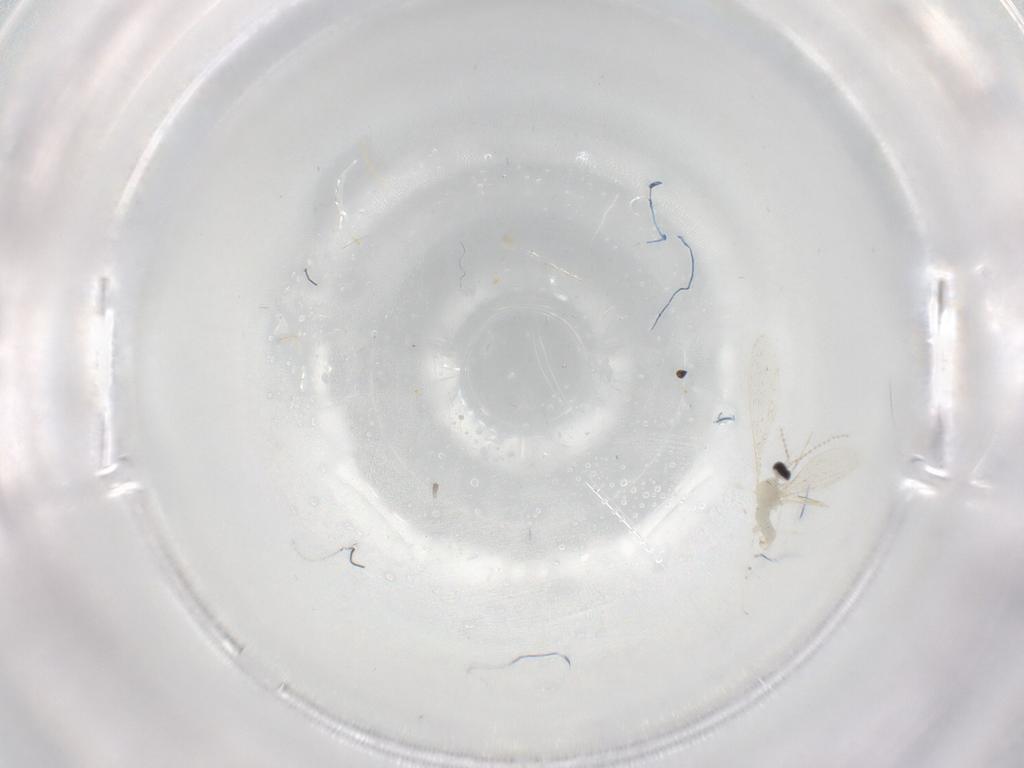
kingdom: Animalia
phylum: Arthropoda
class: Insecta
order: Diptera
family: Cecidomyiidae
